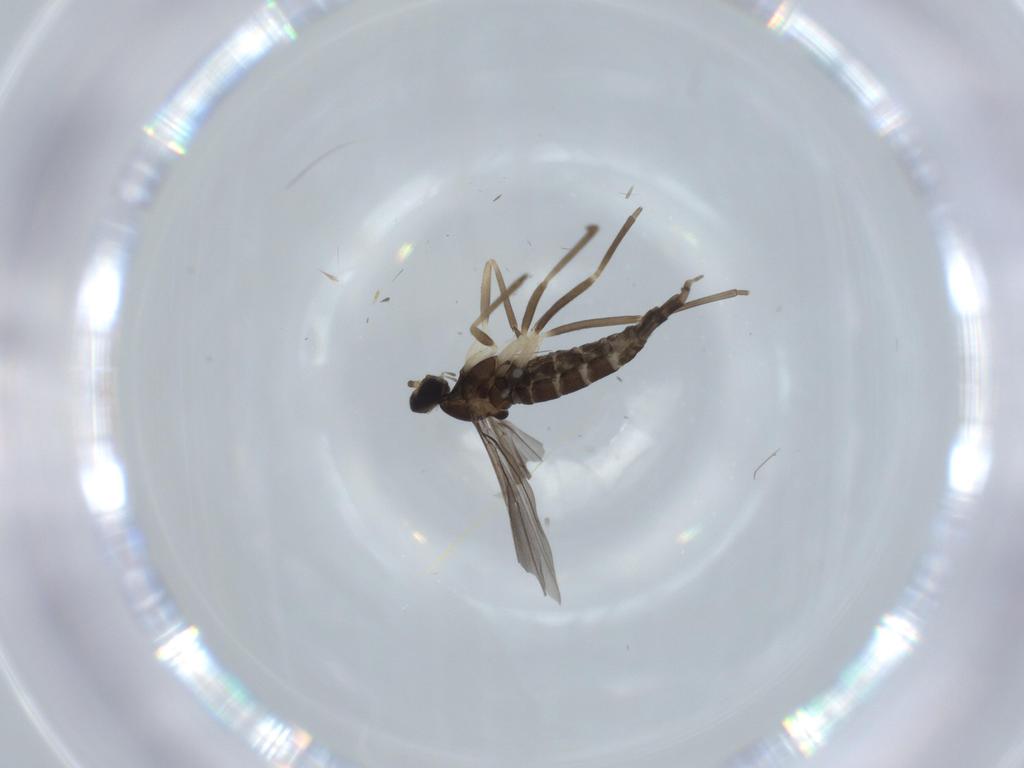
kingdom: Animalia
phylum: Arthropoda
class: Insecta
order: Diptera
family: Cecidomyiidae
